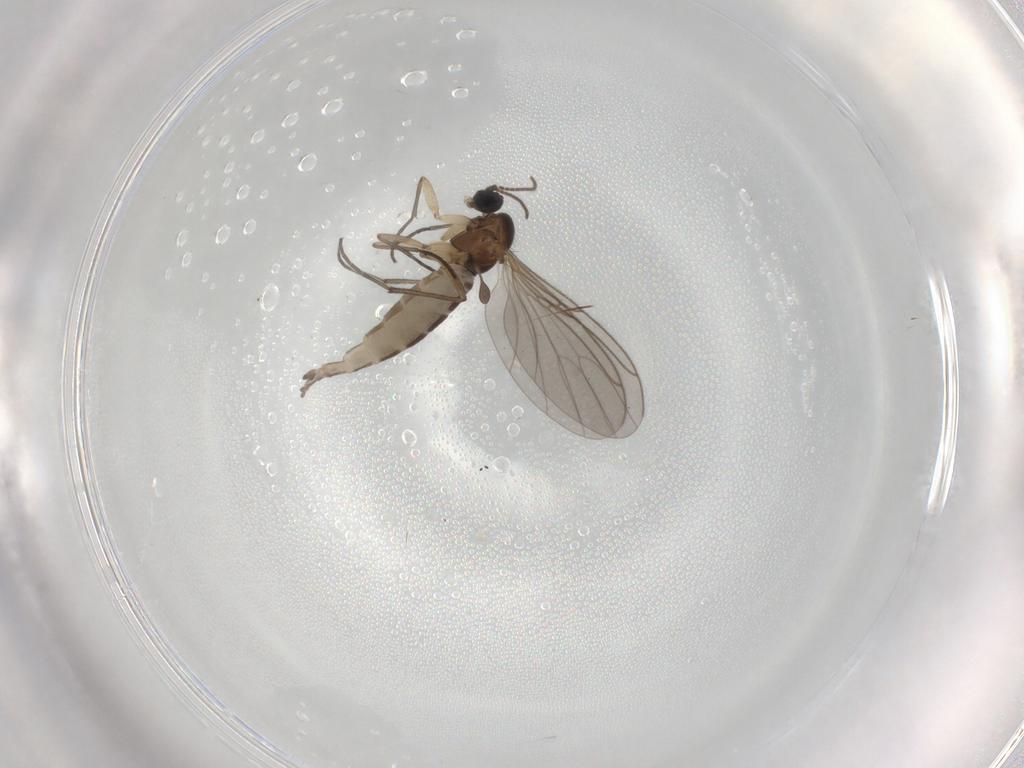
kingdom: Animalia
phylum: Arthropoda
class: Insecta
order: Diptera
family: Sciaridae
